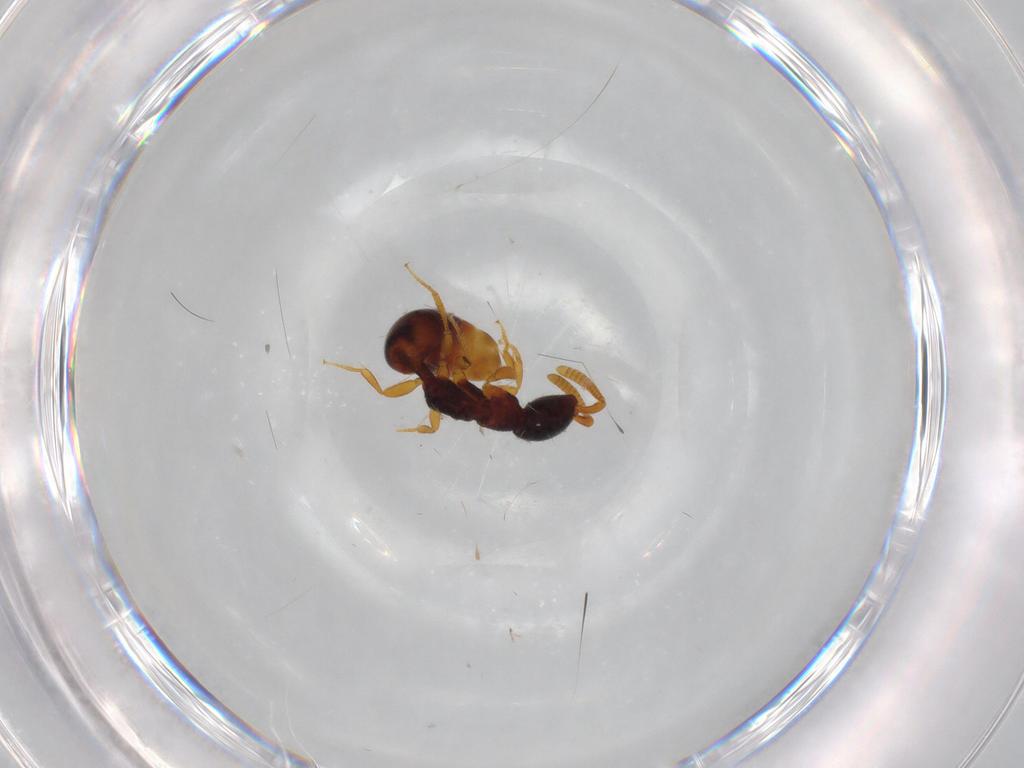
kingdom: Animalia
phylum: Arthropoda
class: Insecta
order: Hymenoptera
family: Bethylidae
